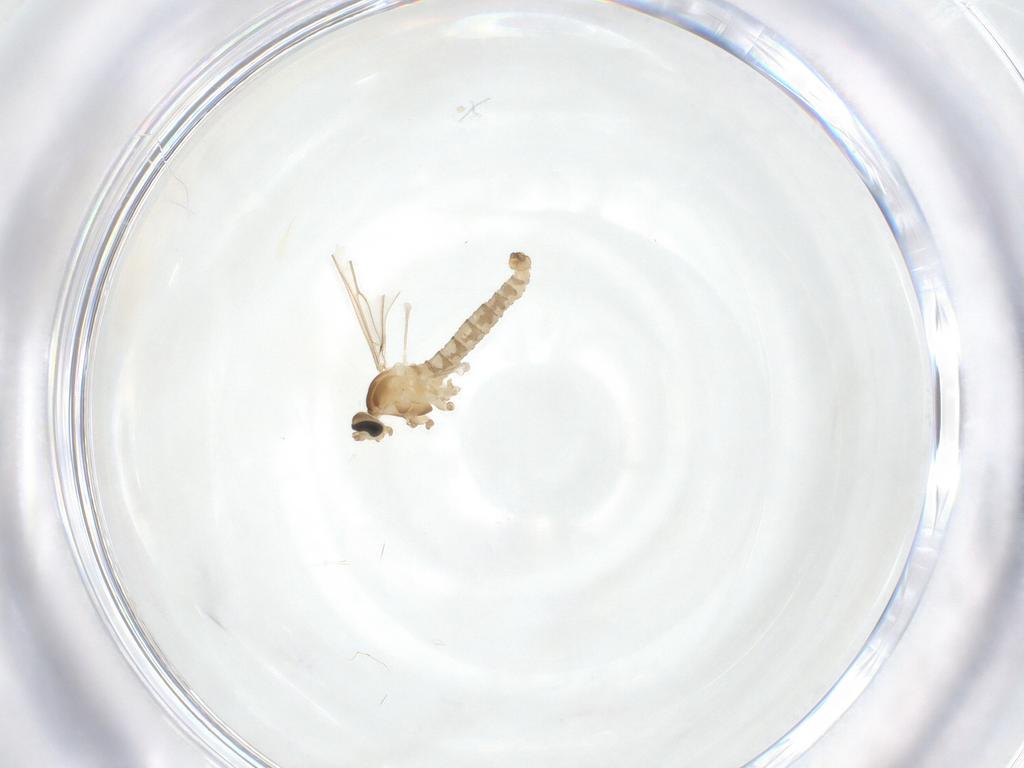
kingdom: Animalia
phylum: Arthropoda
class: Insecta
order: Diptera
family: Cecidomyiidae
